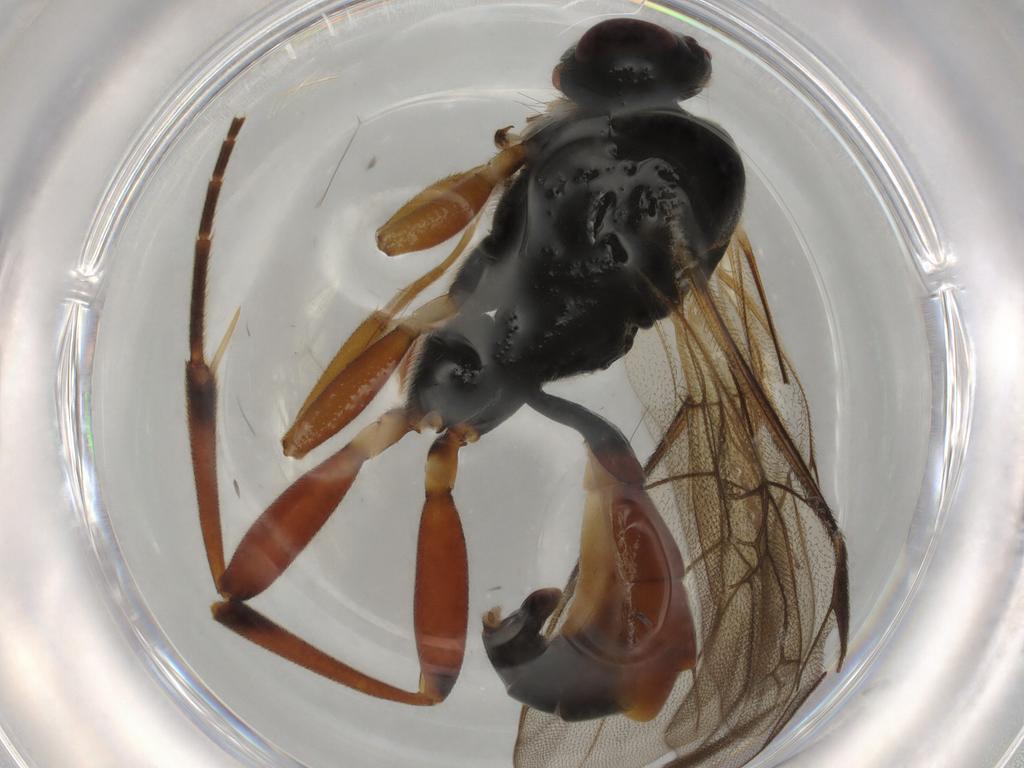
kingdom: Animalia
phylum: Arthropoda
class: Insecta
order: Hymenoptera
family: Ichneumonidae
